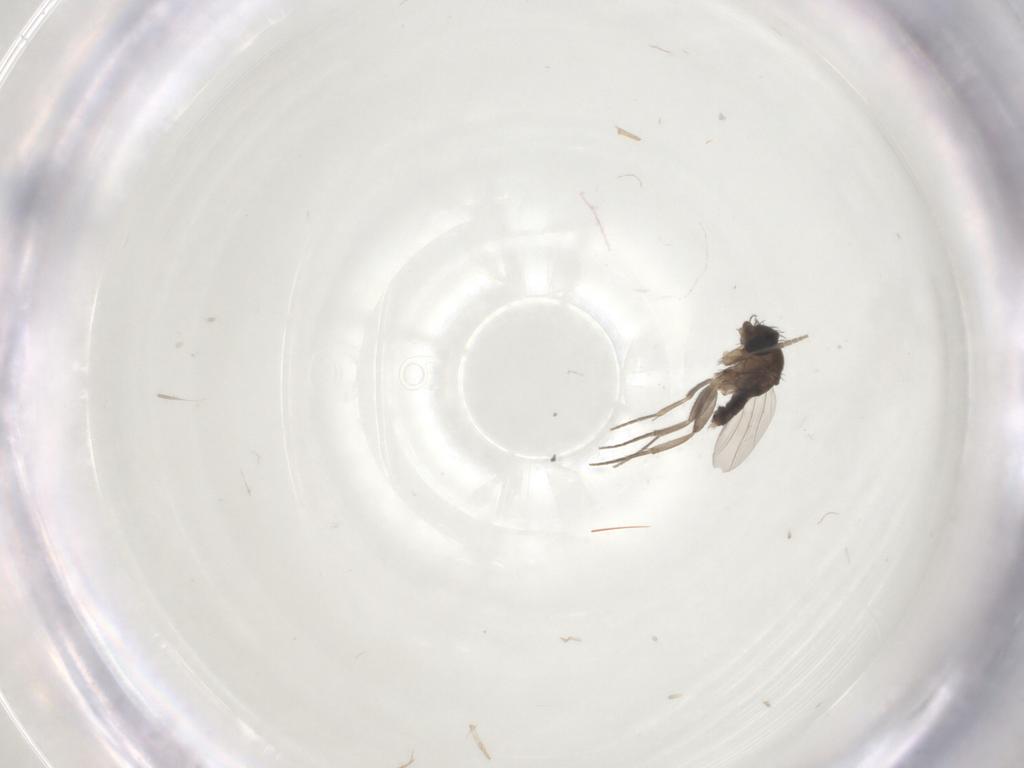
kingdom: Animalia
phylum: Arthropoda
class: Insecta
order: Diptera
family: Phoridae
